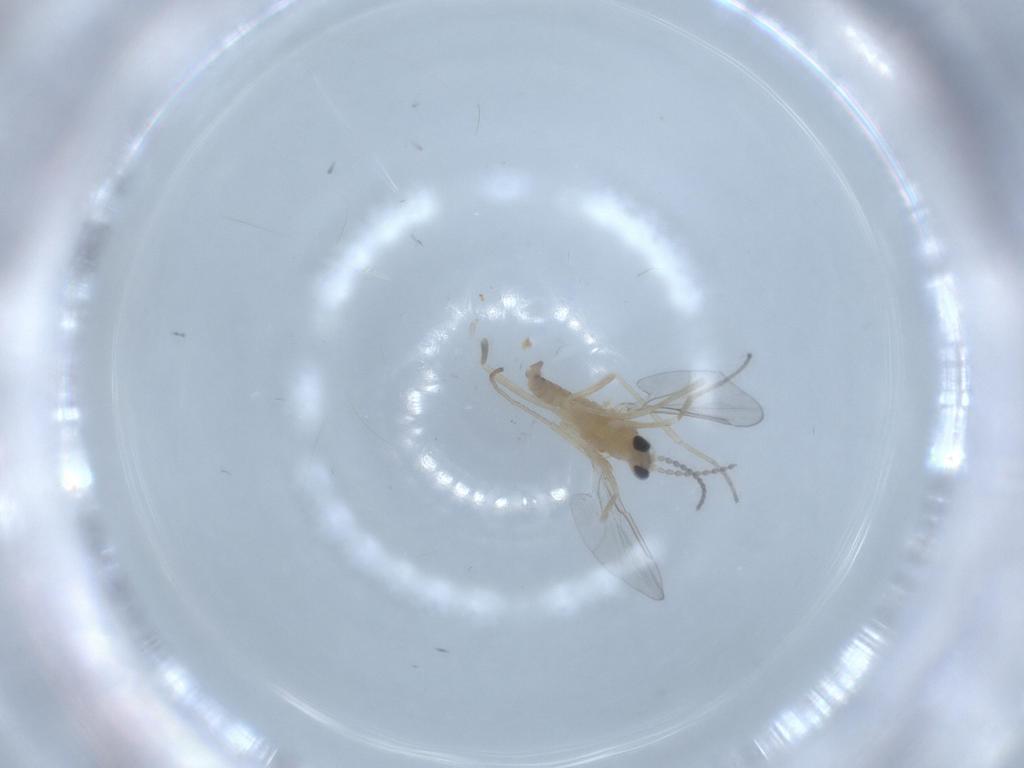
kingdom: Animalia
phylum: Arthropoda
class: Insecta
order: Diptera
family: Cecidomyiidae
